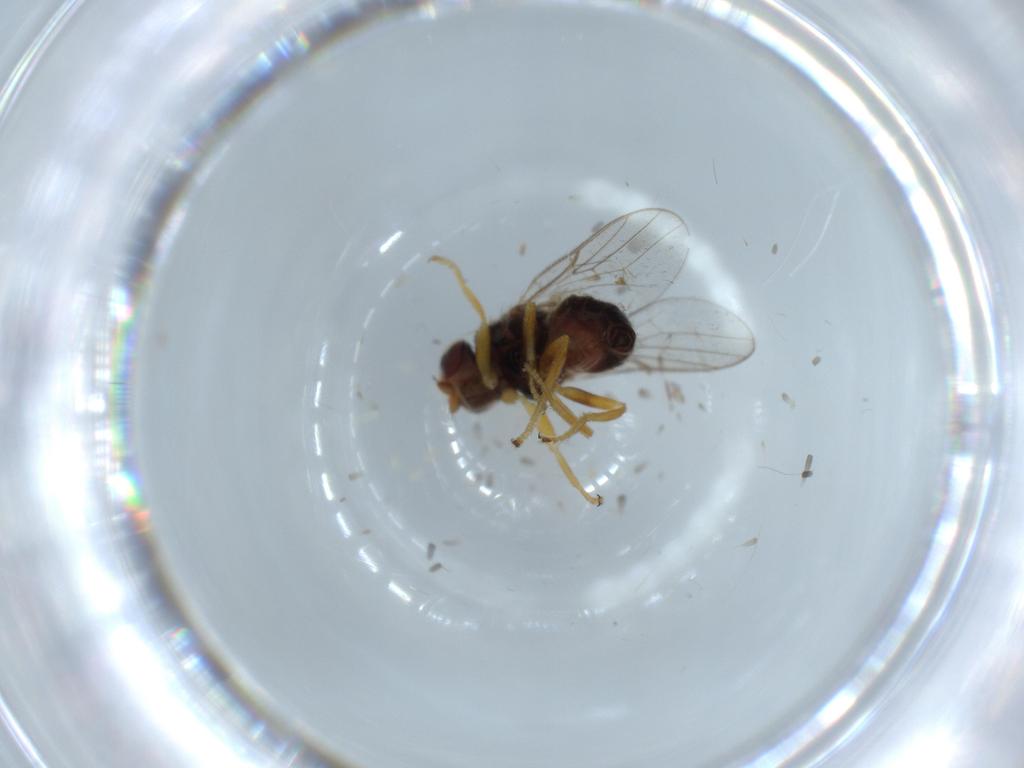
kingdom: Animalia
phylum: Arthropoda
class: Insecta
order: Diptera
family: Chloropidae
